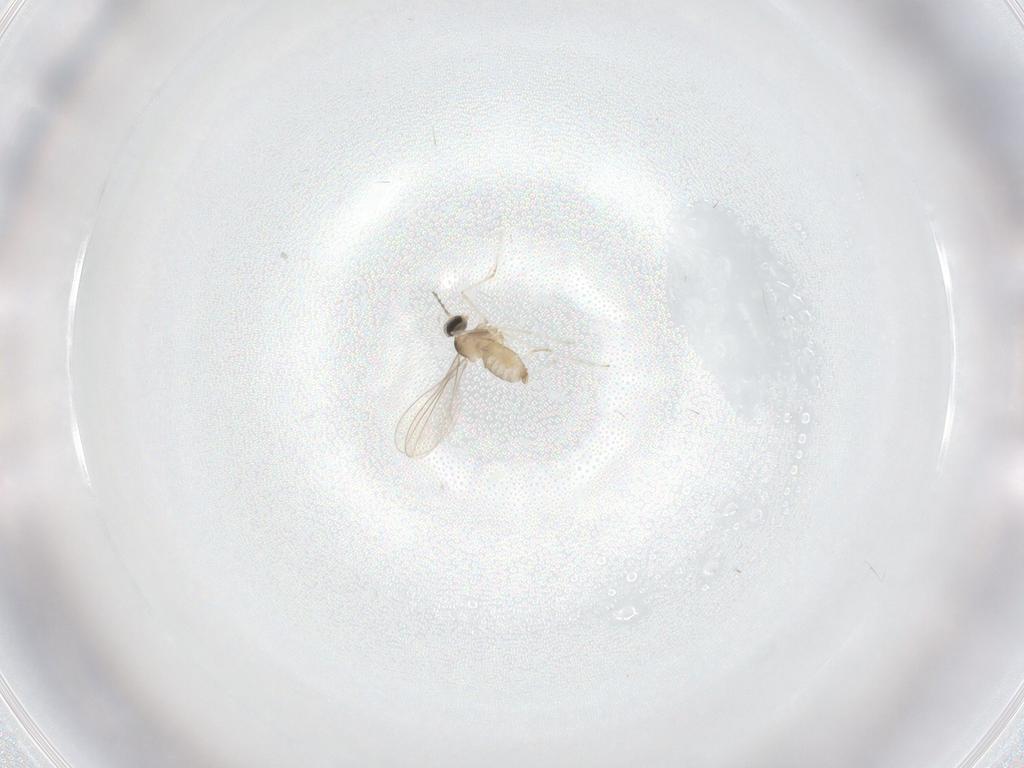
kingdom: Animalia
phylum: Arthropoda
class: Insecta
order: Diptera
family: Cecidomyiidae
